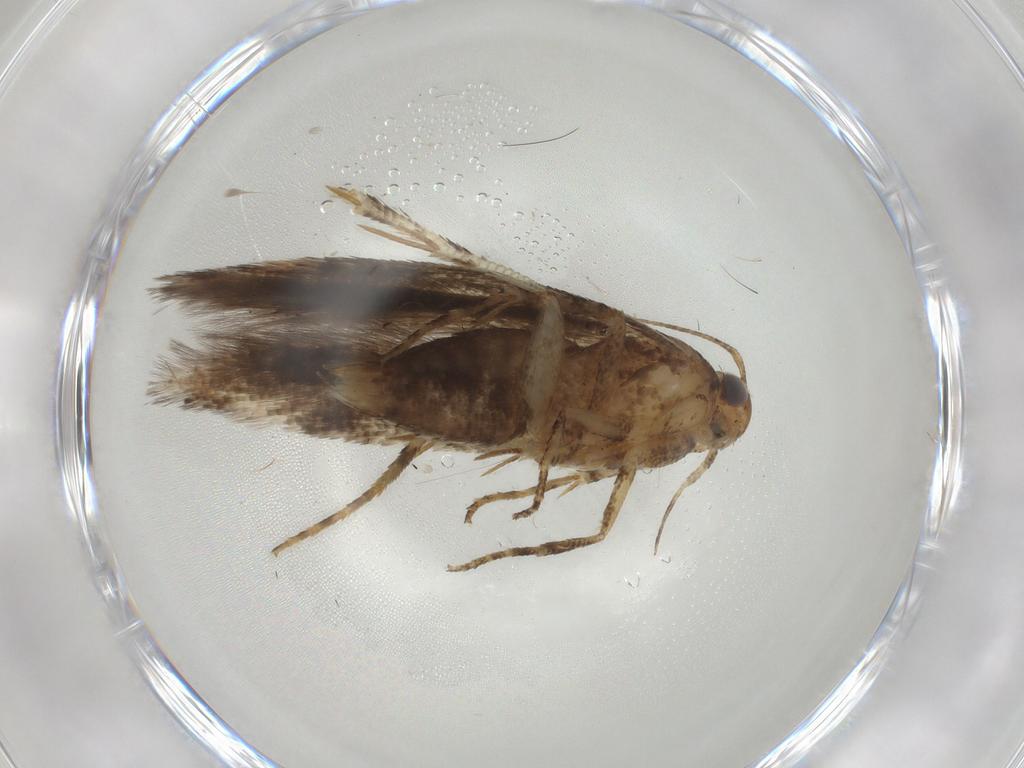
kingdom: Animalia
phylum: Arthropoda
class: Insecta
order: Lepidoptera
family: Gelechiidae
